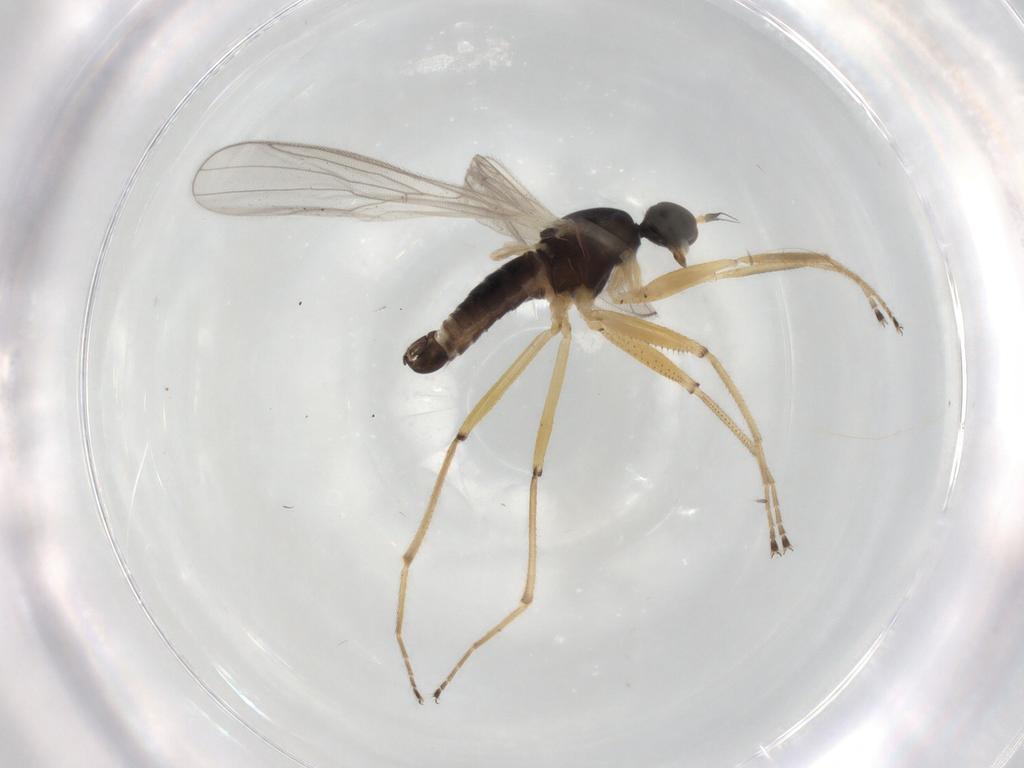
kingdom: Animalia
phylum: Arthropoda
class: Insecta
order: Diptera
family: Hybotidae
